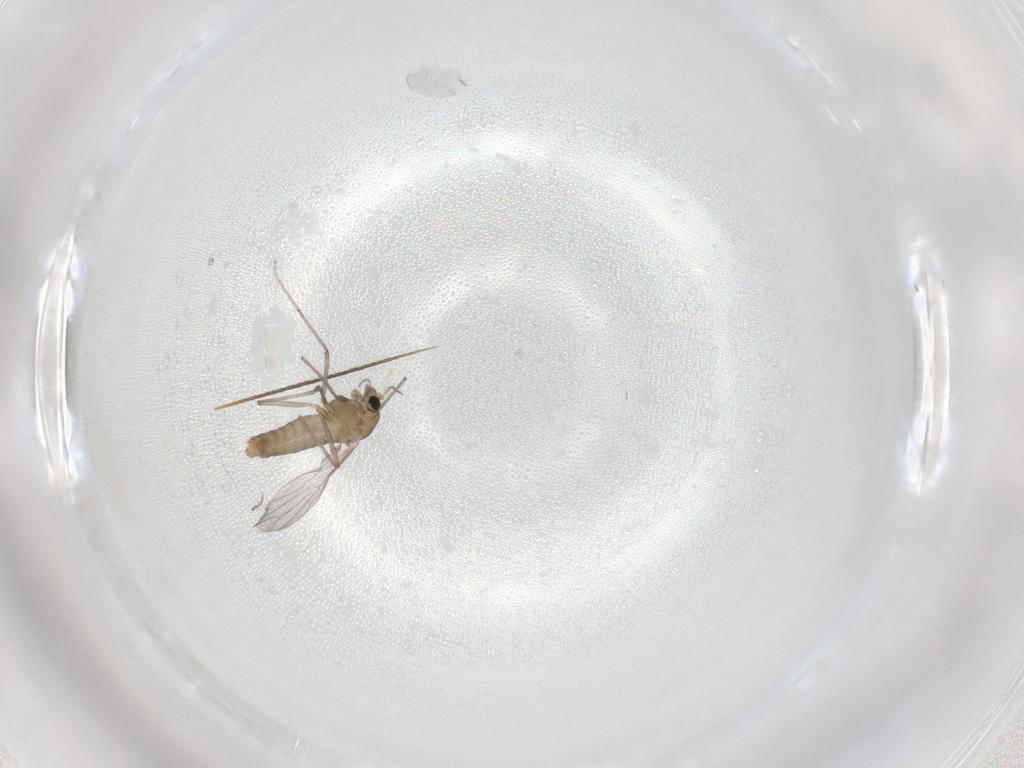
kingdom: Animalia
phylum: Arthropoda
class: Insecta
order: Diptera
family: Chironomidae
